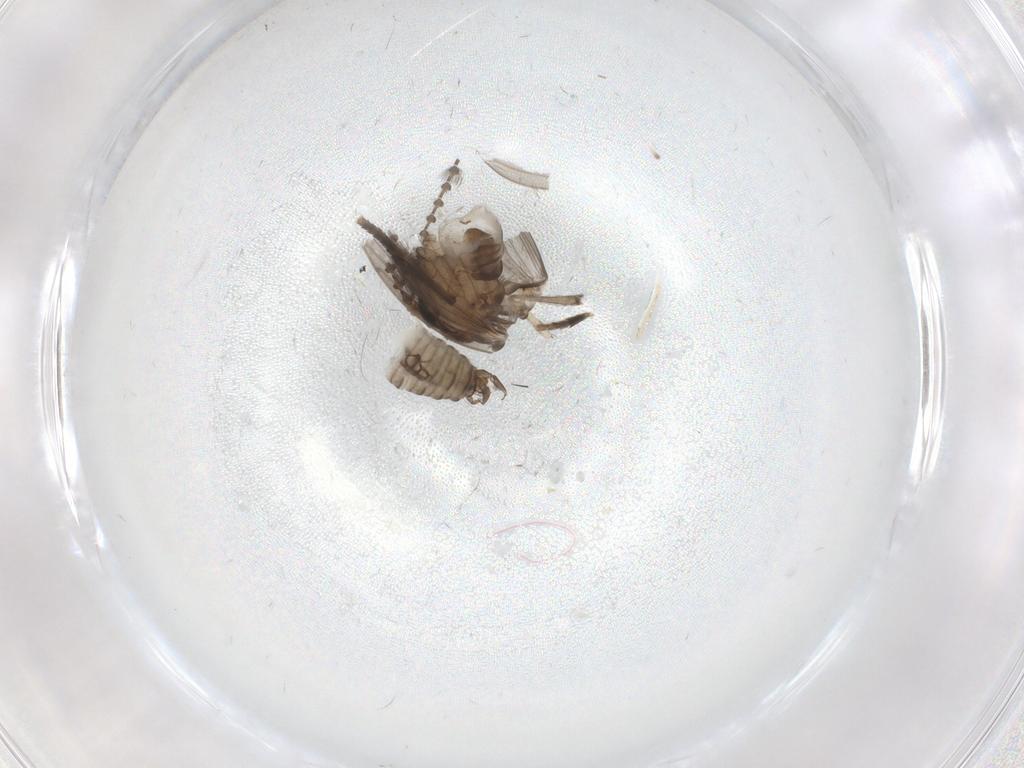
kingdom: Animalia
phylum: Arthropoda
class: Insecta
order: Diptera
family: Psychodidae
